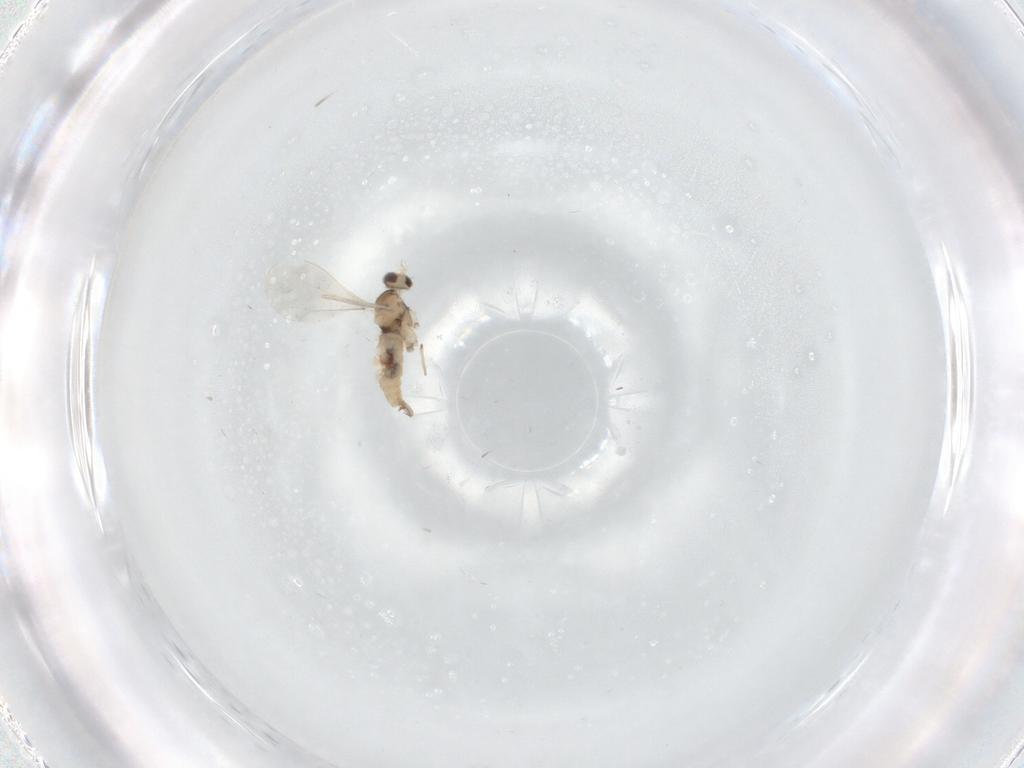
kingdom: Animalia
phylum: Arthropoda
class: Insecta
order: Diptera
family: Cecidomyiidae
